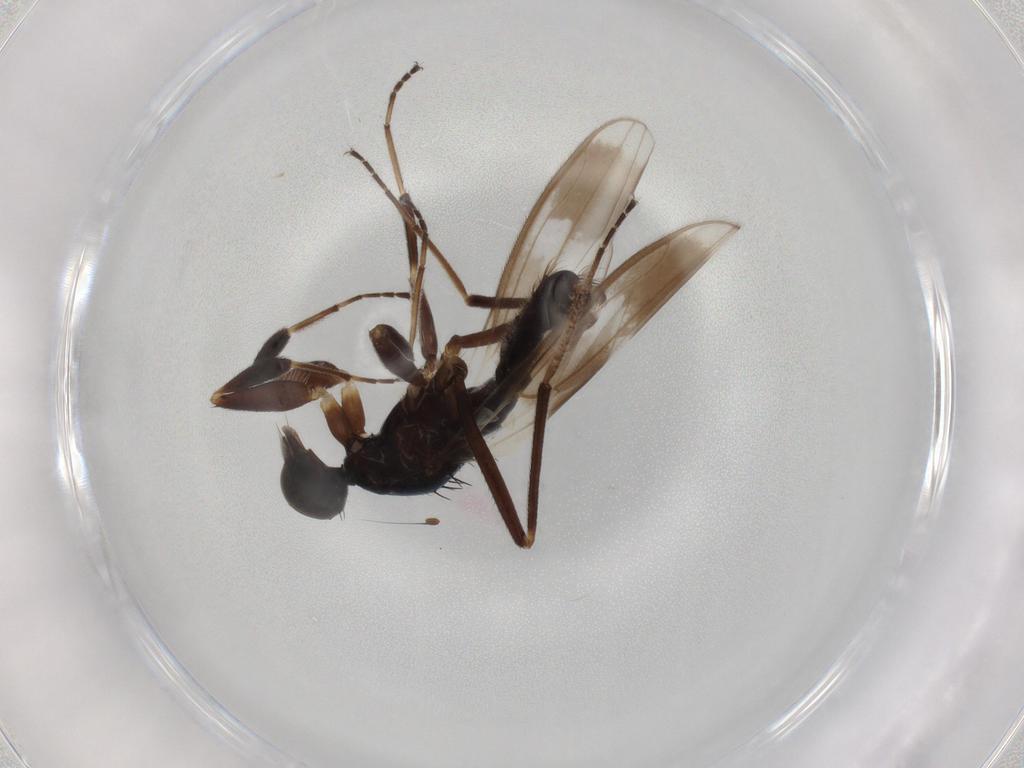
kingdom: Animalia
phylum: Arthropoda
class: Insecta
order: Diptera
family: Hybotidae
